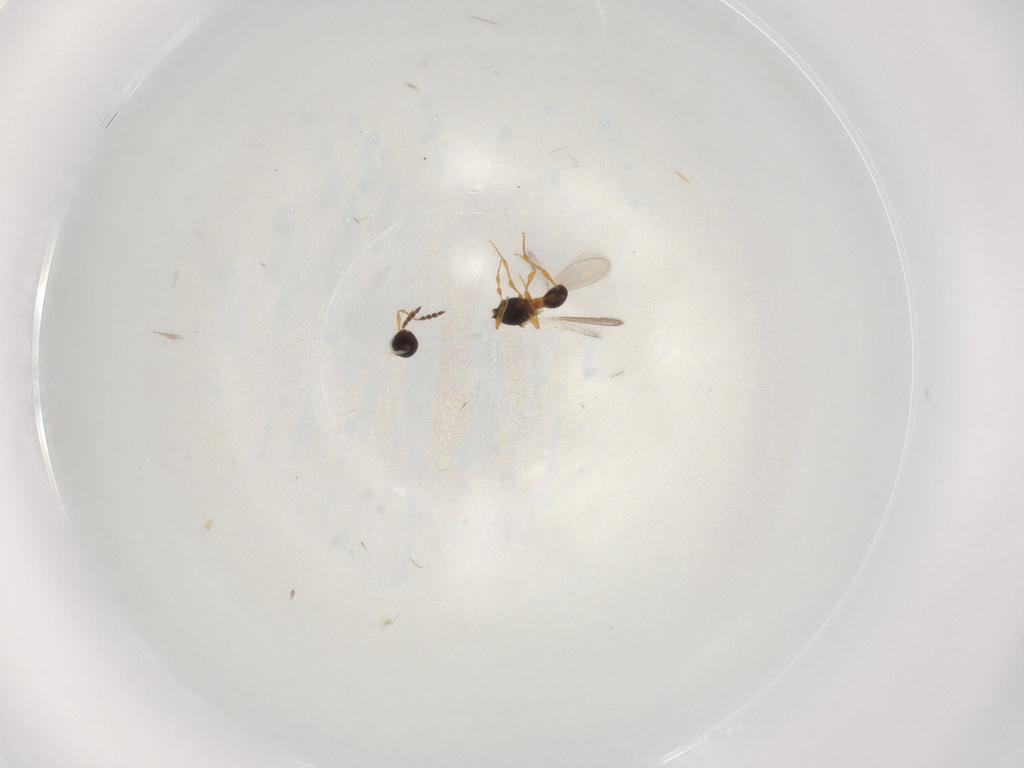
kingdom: Animalia
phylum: Arthropoda
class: Insecta
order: Hymenoptera
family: Platygastridae
